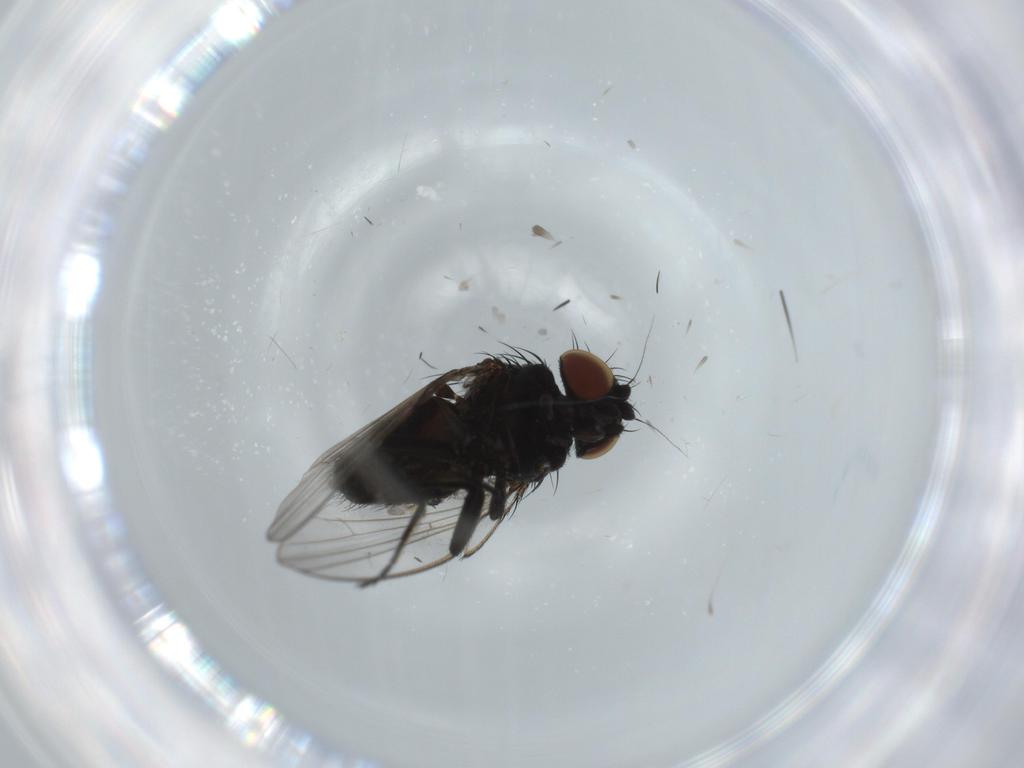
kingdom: Animalia
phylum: Arthropoda
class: Insecta
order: Diptera
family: Milichiidae
